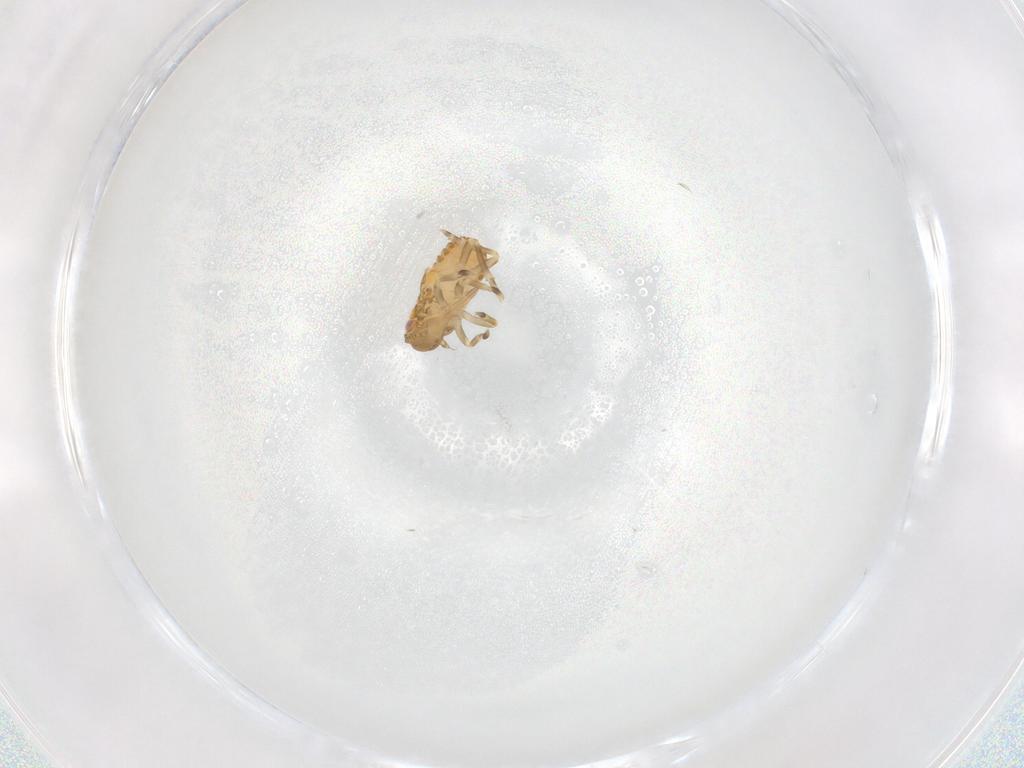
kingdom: Animalia
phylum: Arthropoda
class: Insecta
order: Hemiptera
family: Flatidae
